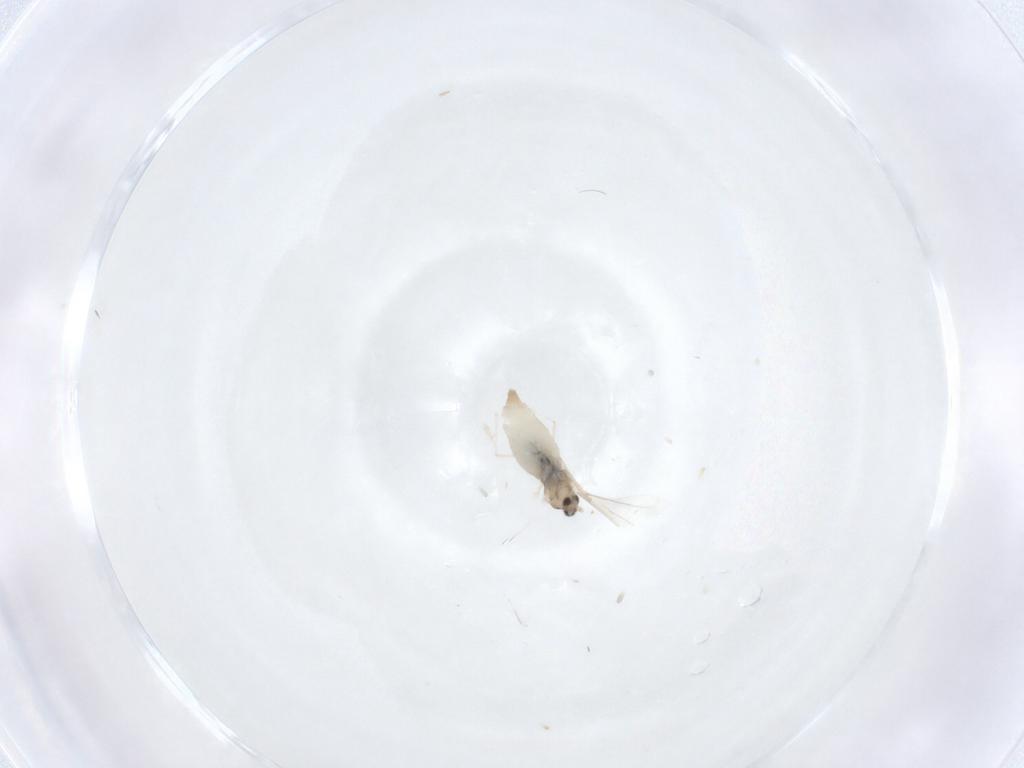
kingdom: Animalia
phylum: Arthropoda
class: Insecta
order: Diptera
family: Cecidomyiidae
